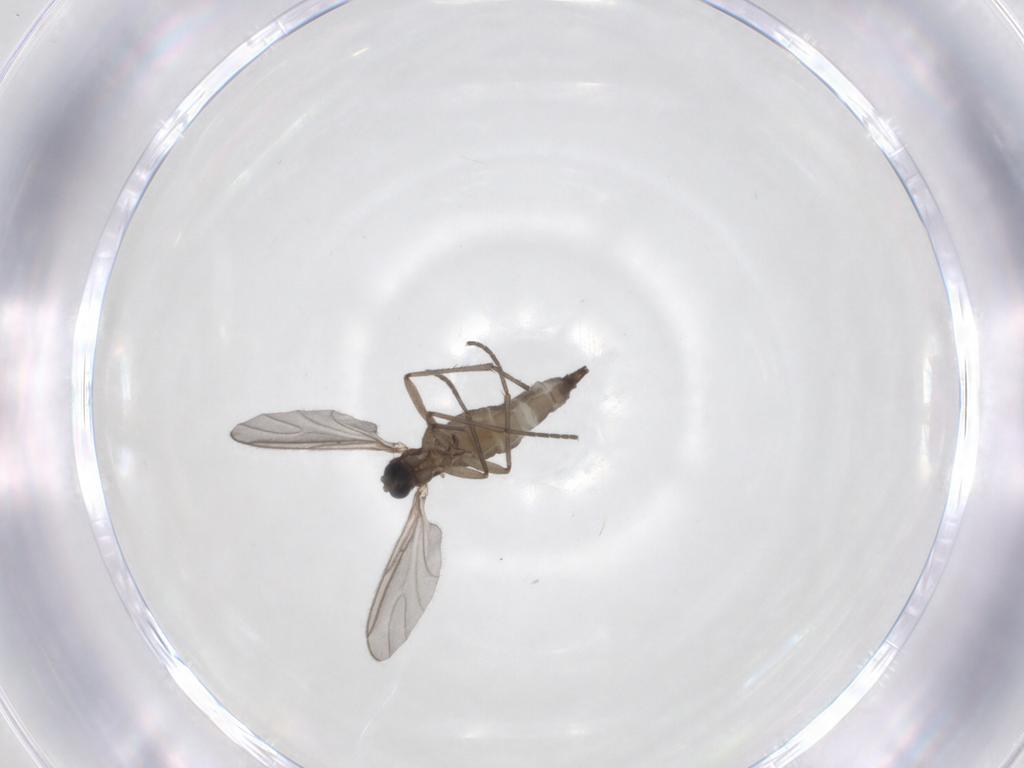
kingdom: Animalia
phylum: Arthropoda
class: Insecta
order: Diptera
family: Sciaridae
